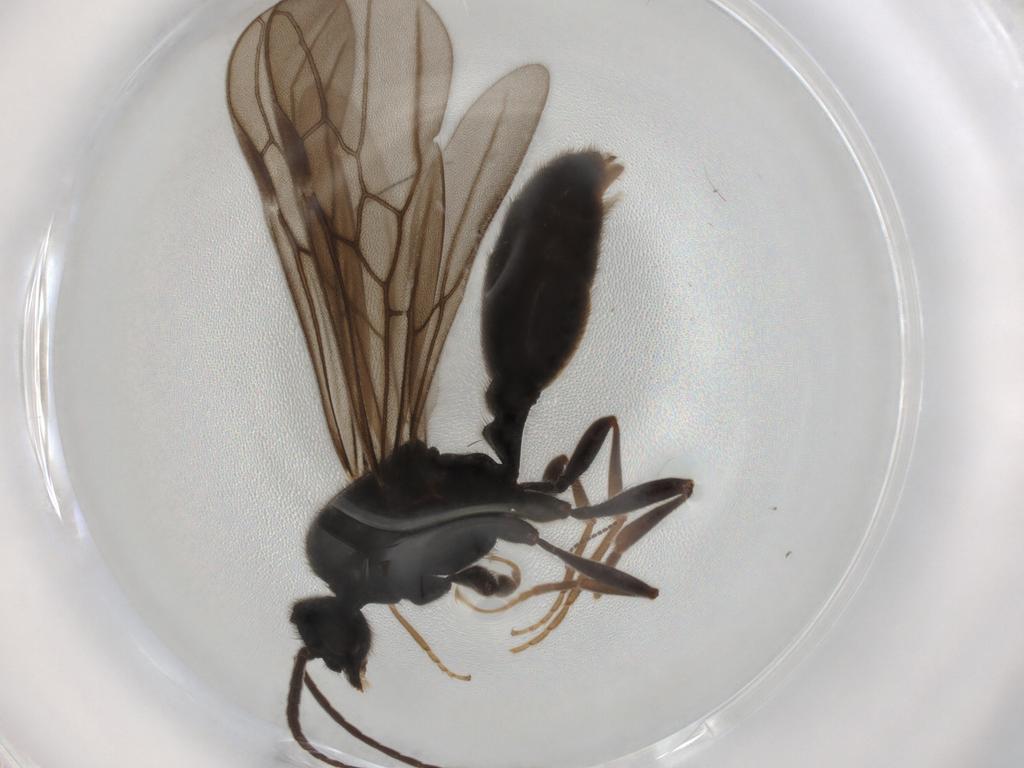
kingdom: Animalia
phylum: Arthropoda
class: Insecta
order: Hymenoptera
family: Formicidae
